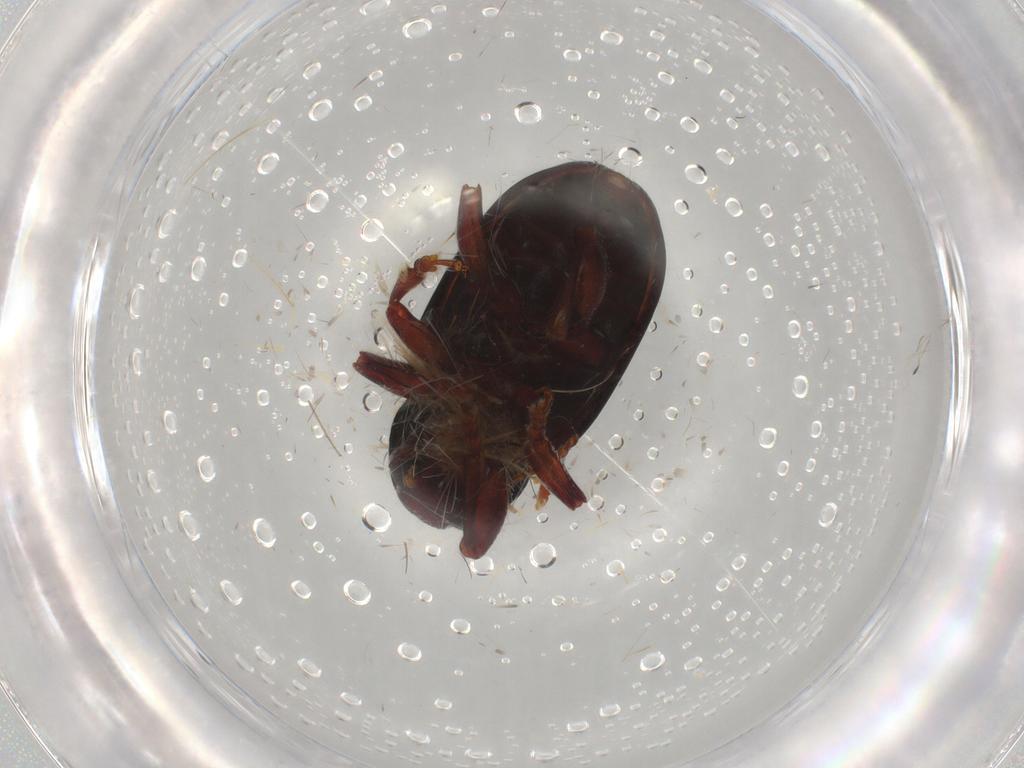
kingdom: Animalia
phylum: Arthropoda
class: Insecta
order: Coleoptera
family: Chrysomelidae
